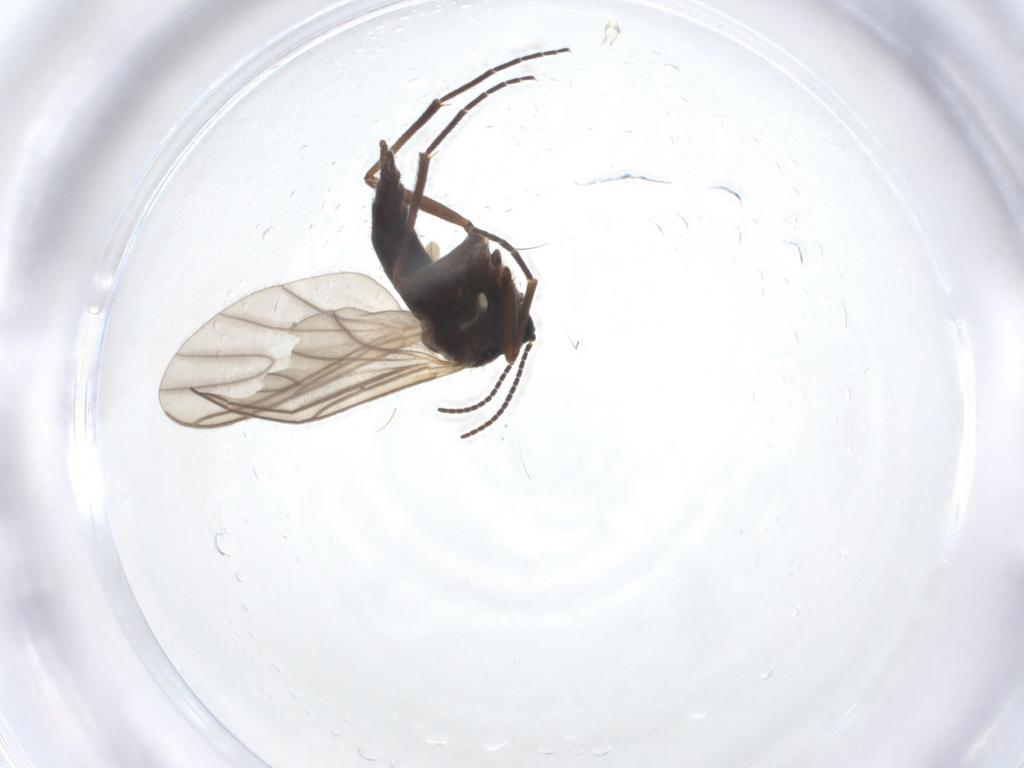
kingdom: Animalia
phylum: Arthropoda
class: Insecta
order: Diptera
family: Sciaridae
